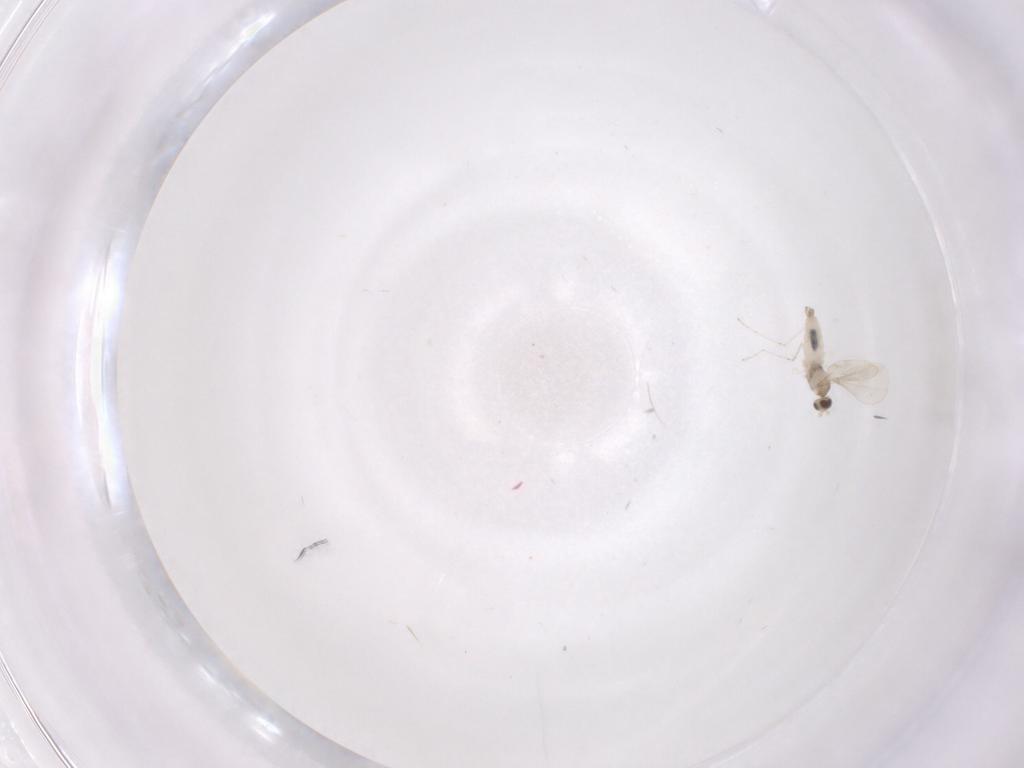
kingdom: Animalia
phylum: Arthropoda
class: Insecta
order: Diptera
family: Cecidomyiidae
